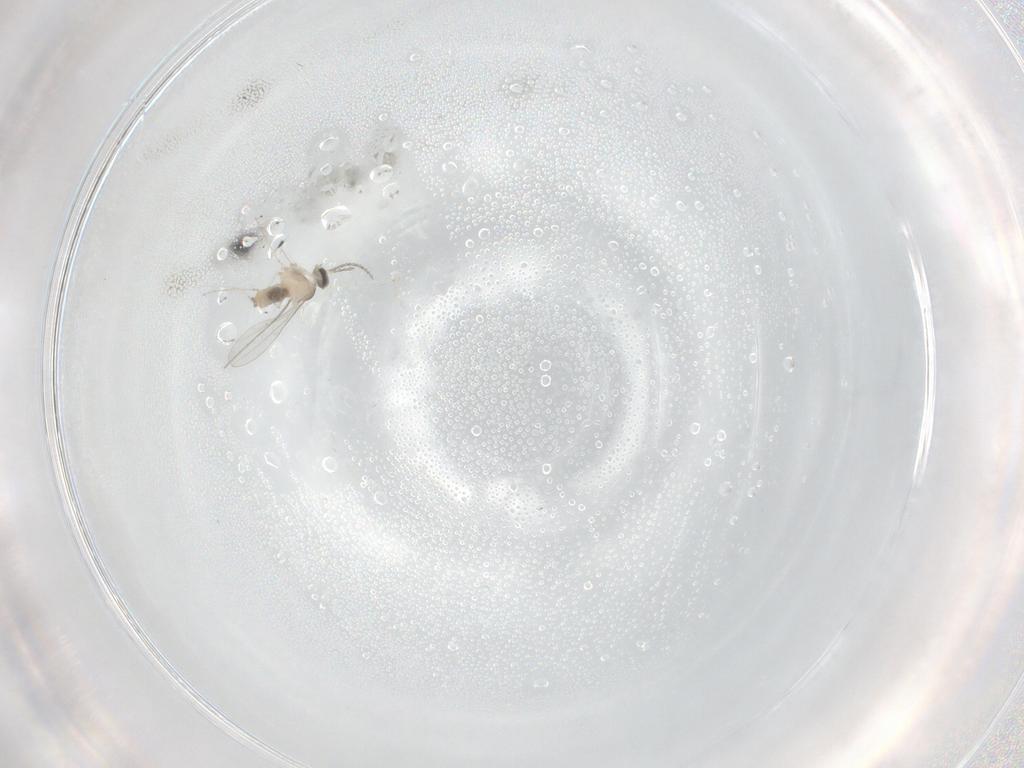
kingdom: Animalia
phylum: Arthropoda
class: Insecta
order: Diptera
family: Cecidomyiidae
